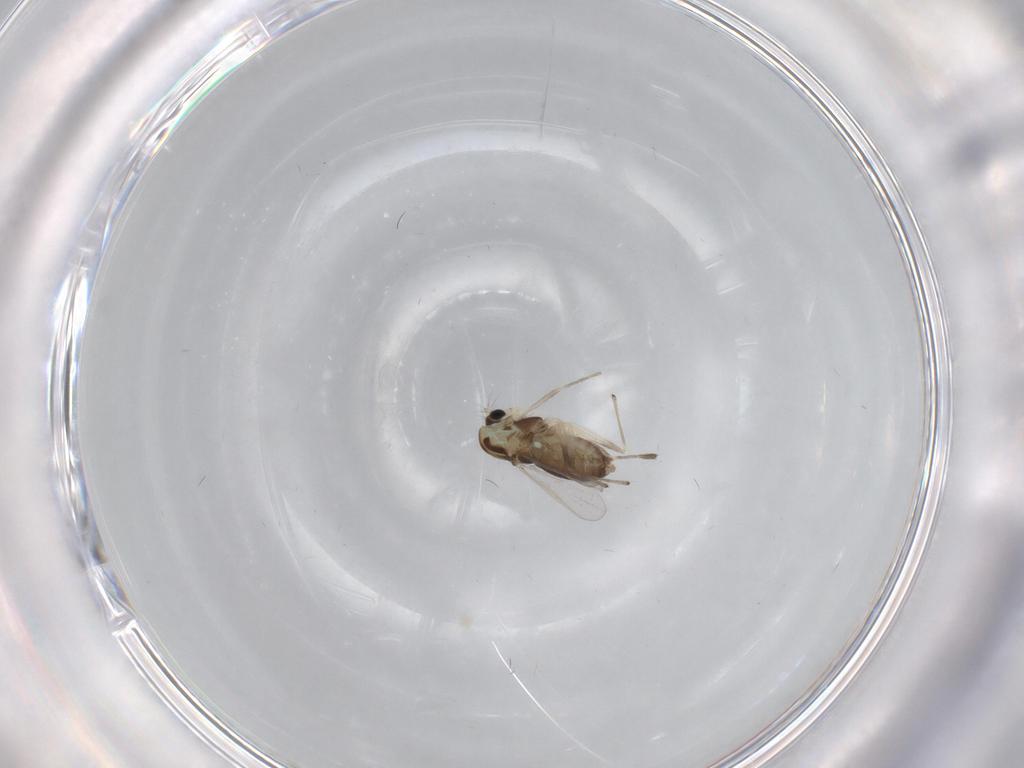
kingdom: Animalia
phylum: Arthropoda
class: Insecta
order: Diptera
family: Chironomidae
